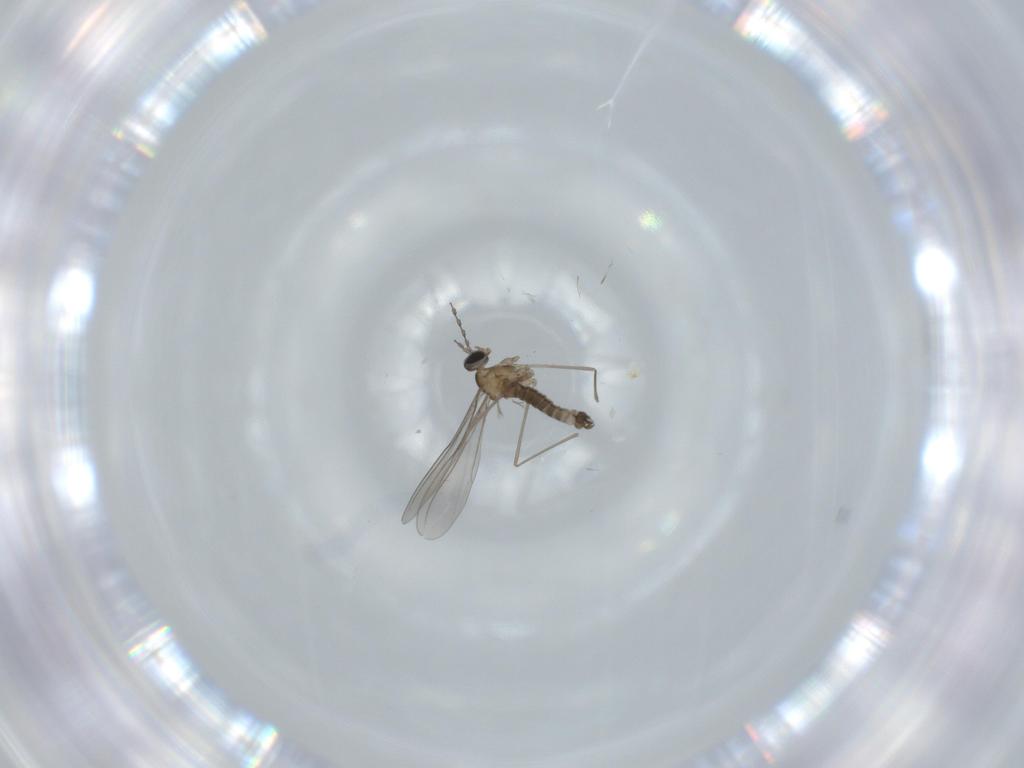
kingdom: Animalia
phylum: Arthropoda
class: Insecta
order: Diptera
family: Cecidomyiidae
